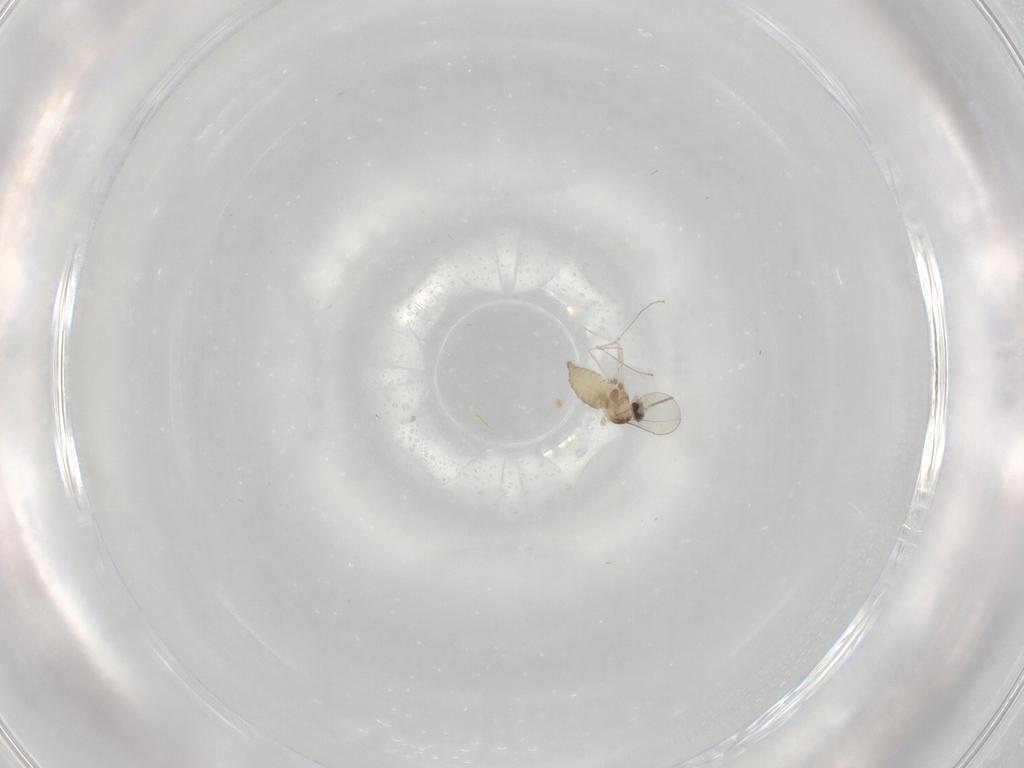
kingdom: Animalia
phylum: Arthropoda
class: Insecta
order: Diptera
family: Cecidomyiidae
